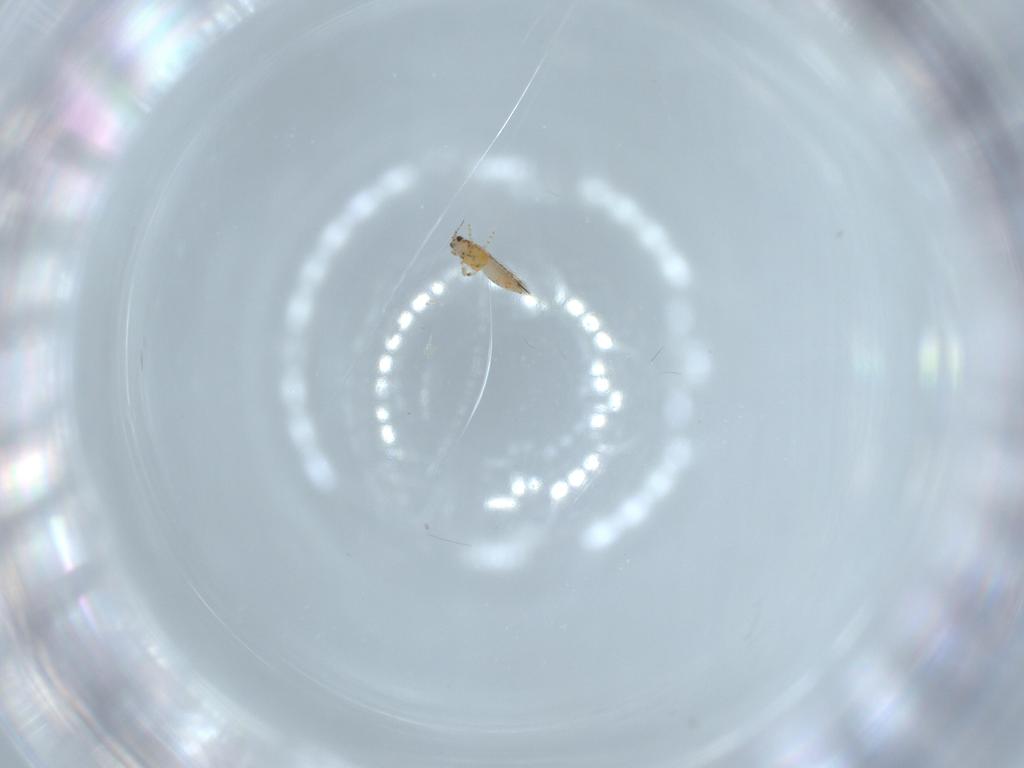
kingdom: Animalia
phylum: Arthropoda
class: Insecta
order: Thysanoptera
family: Thripidae
